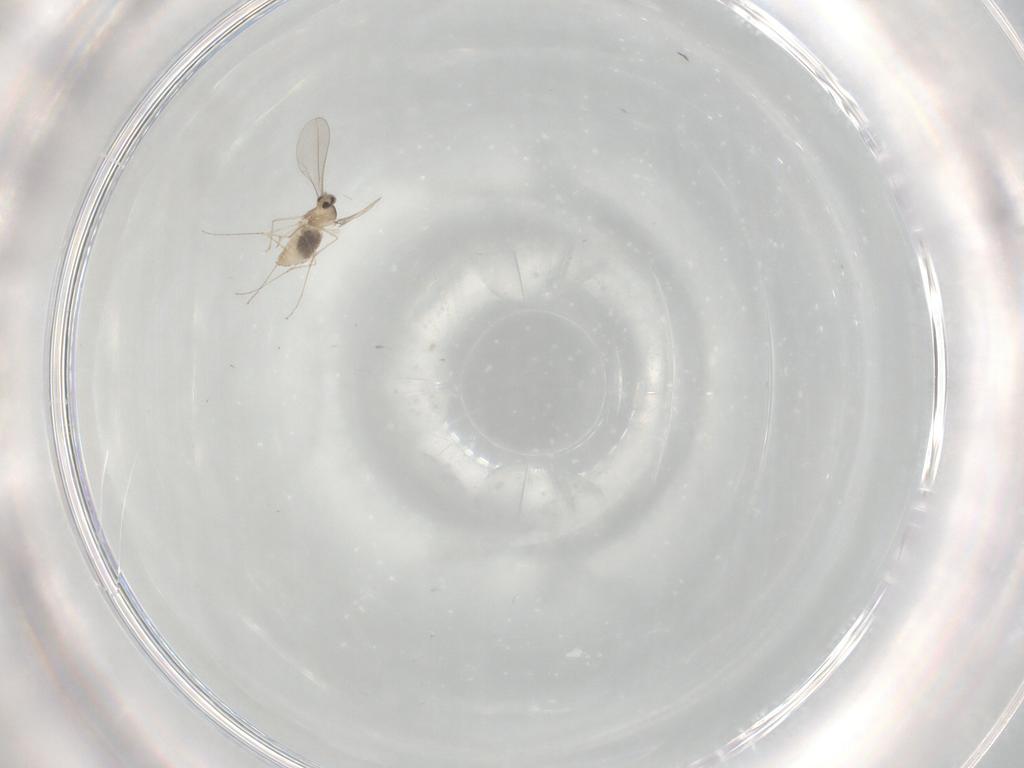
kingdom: Animalia
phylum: Arthropoda
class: Insecta
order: Diptera
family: Cecidomyiidae
